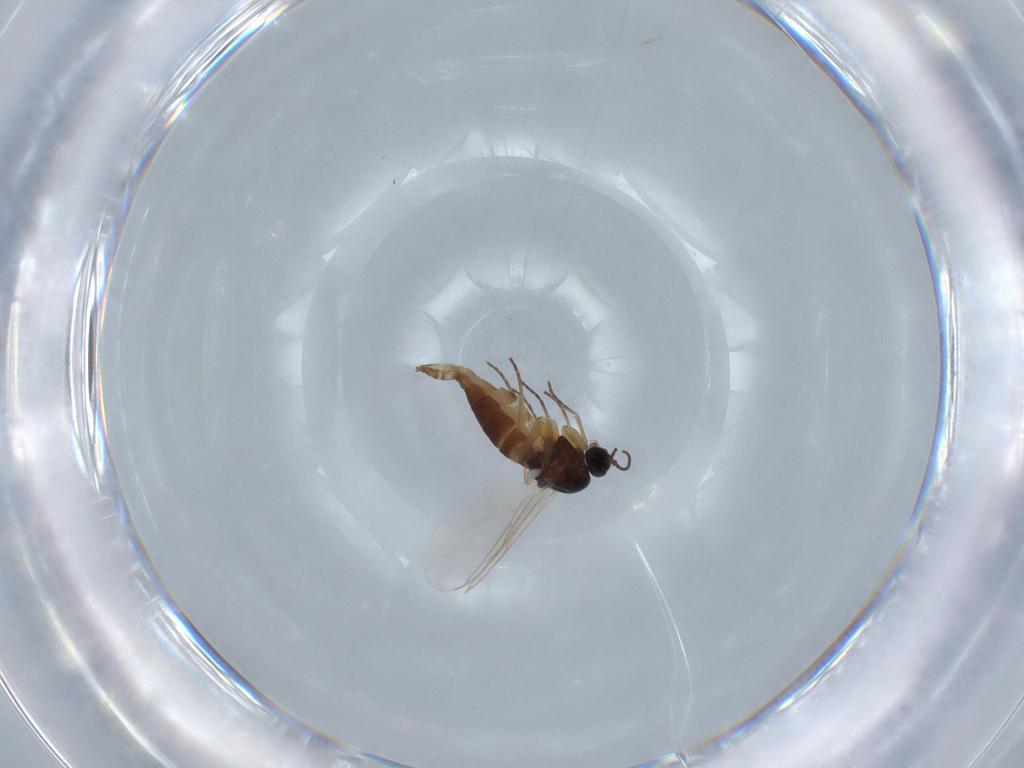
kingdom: Animalia
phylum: Arthropoda
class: Insecta
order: Diptera
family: Sciaridae
